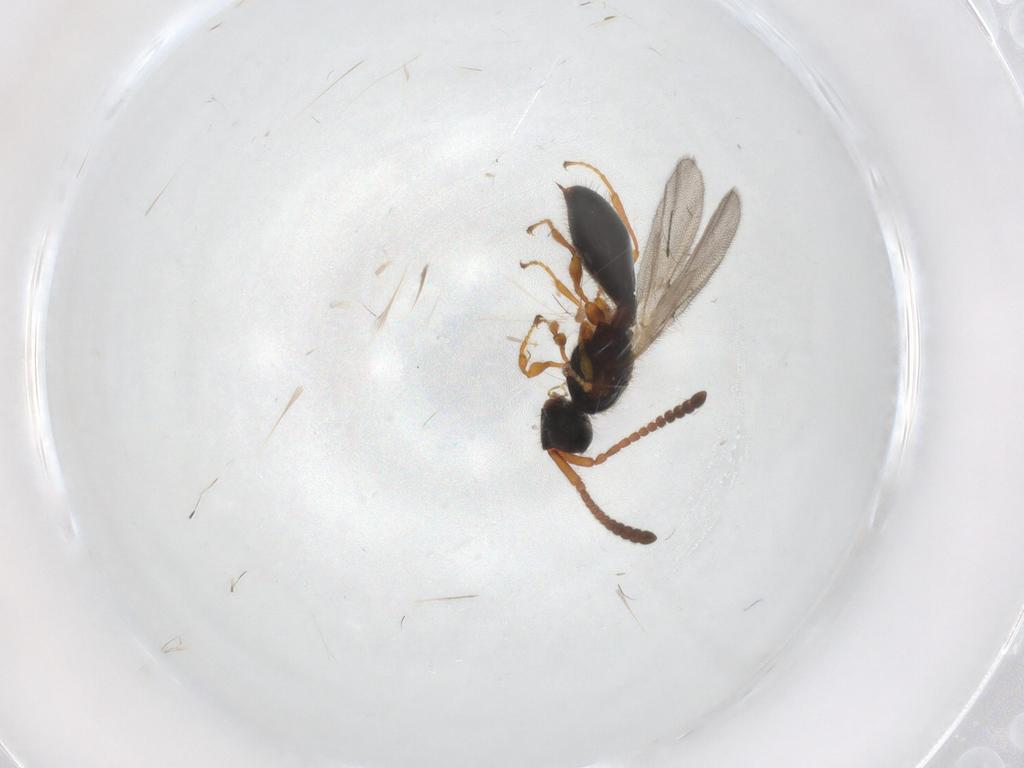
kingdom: Animalia
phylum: Arthropoda
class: Insecta
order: Hymenoptera
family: Diapriidae
